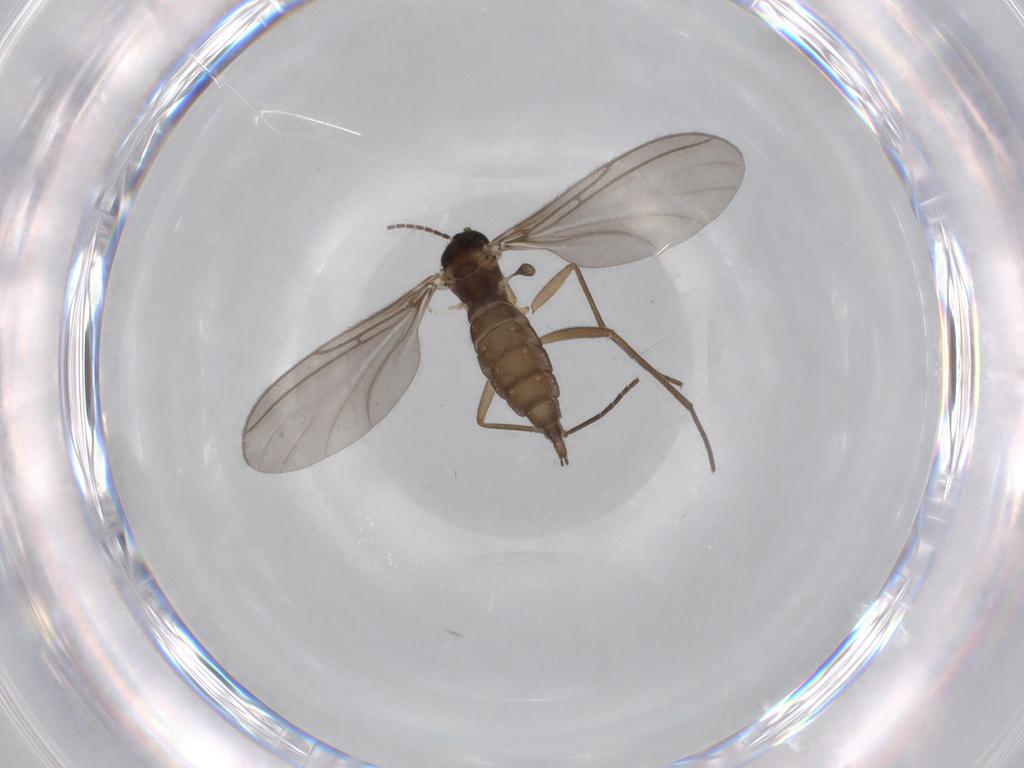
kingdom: Animalia
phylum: Arthropoda
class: Insecta
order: Diptera
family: Sciaridae
